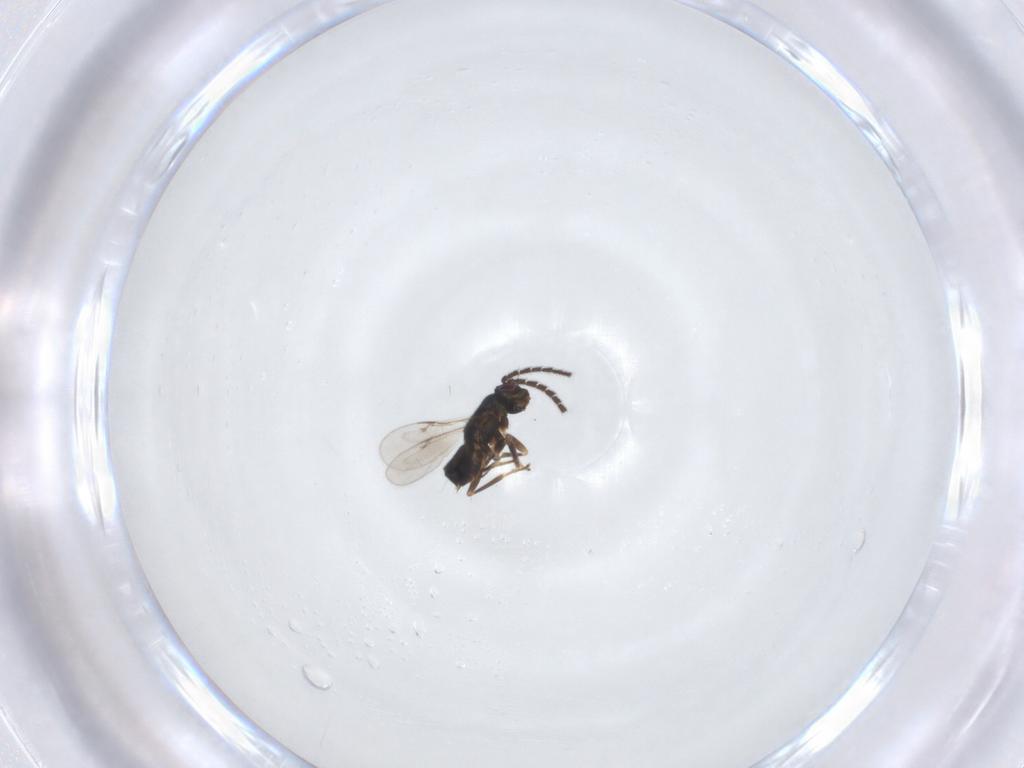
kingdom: Animalia
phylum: Arthropoda
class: Insecta
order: Hymenoptera
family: Encyrtidae
